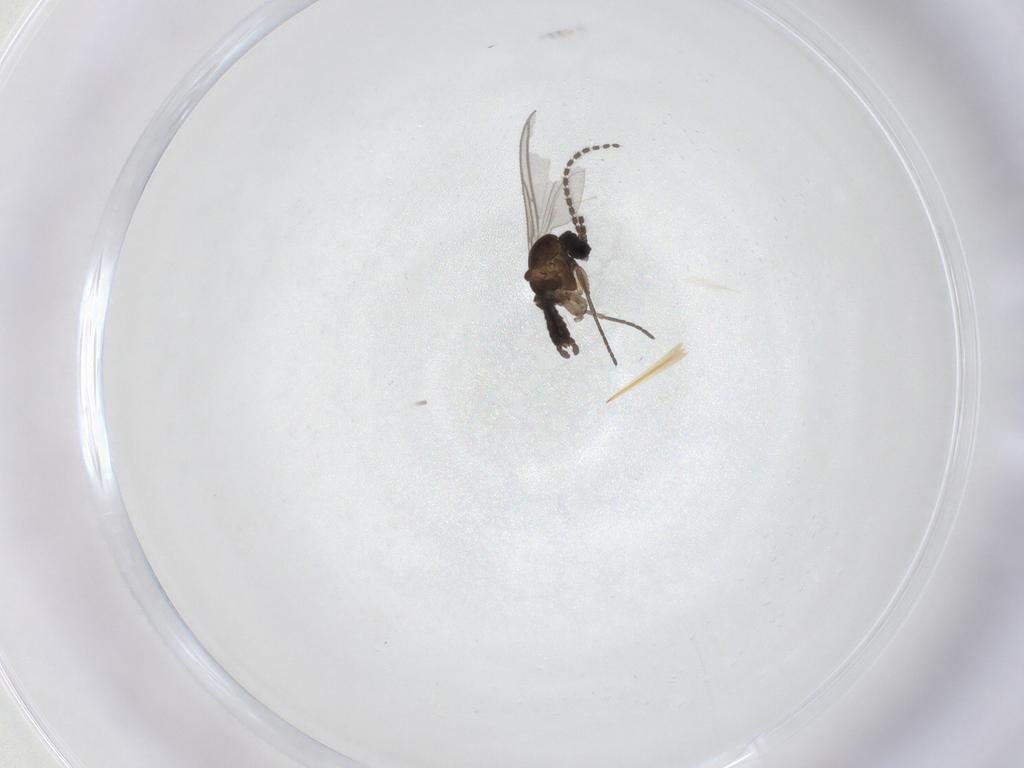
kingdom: Animalia
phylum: Arthropoda
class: Insecta
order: Diptera
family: Sciaridae
